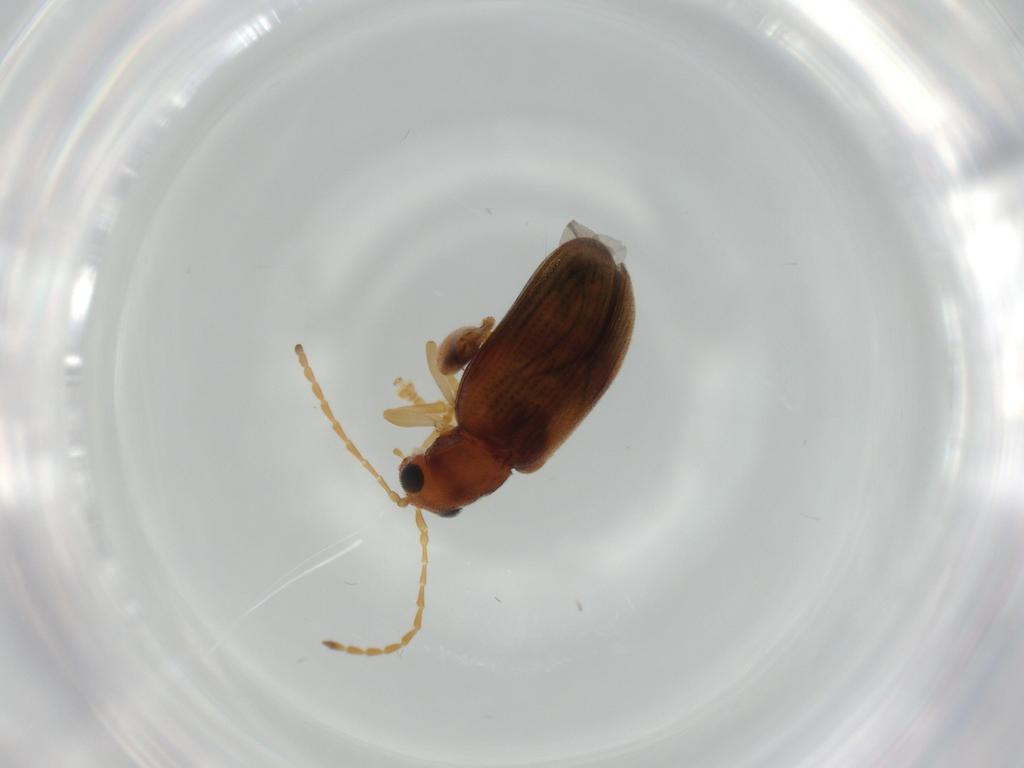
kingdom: Animalia
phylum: Arthropoda
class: Insecta
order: Coleoptera
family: Chrysomelidae
